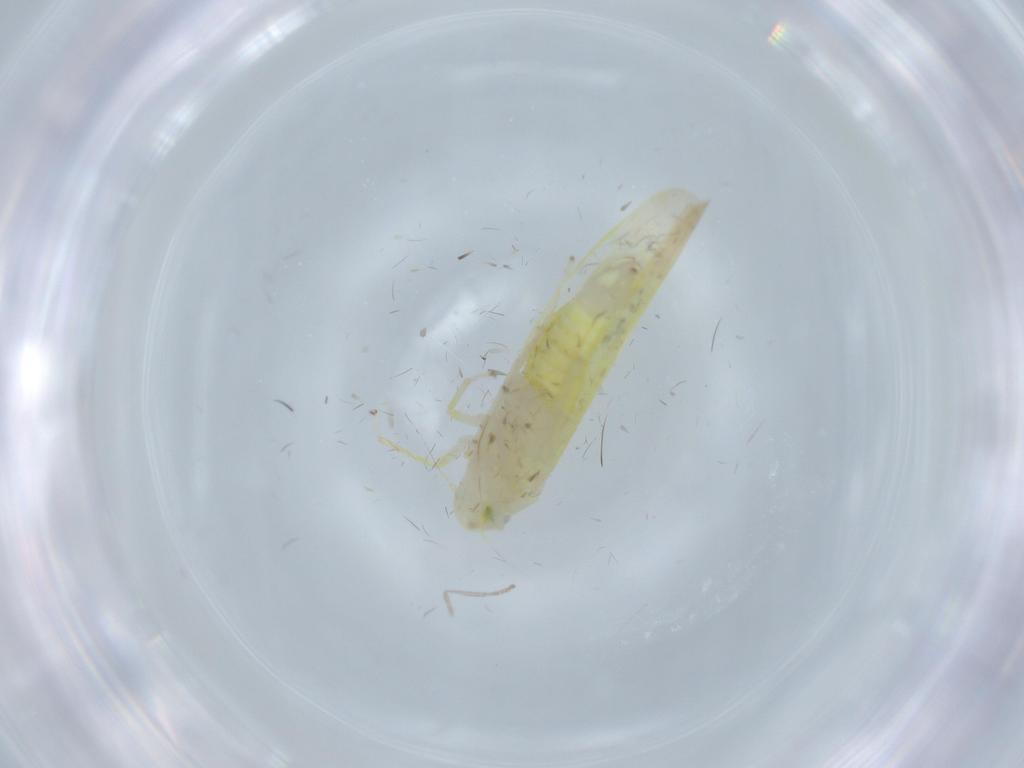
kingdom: Animalia
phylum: Arthropoda
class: Insecta
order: Hemiptera
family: Cicadellidae
